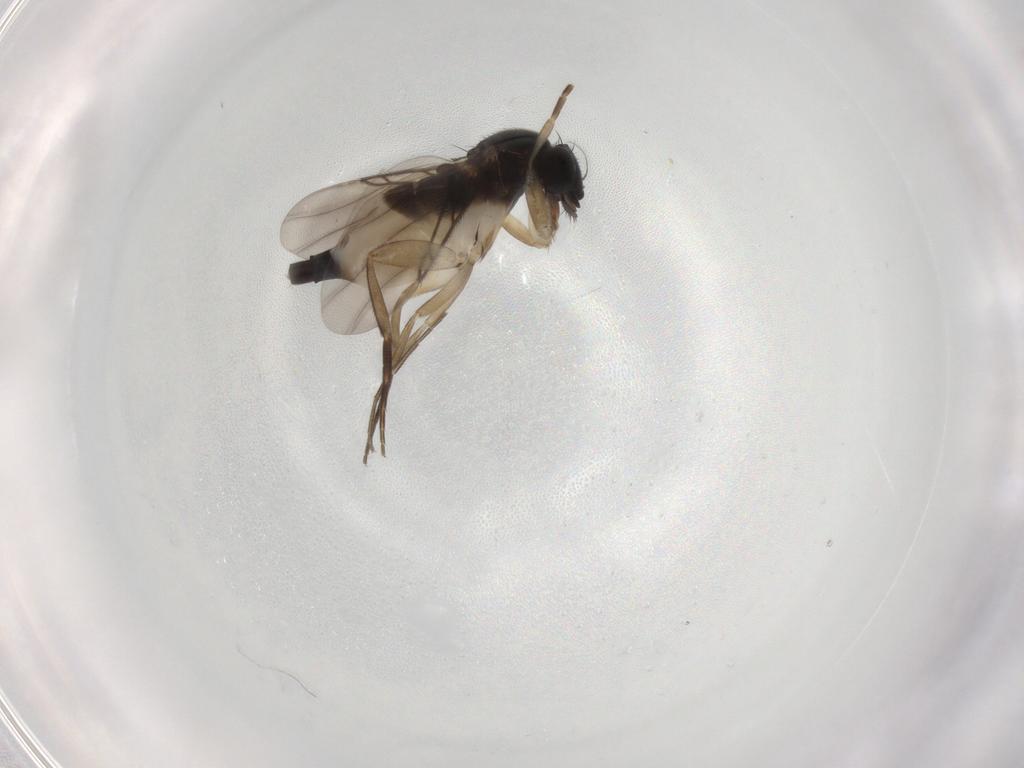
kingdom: Animalia
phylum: Arthropoda
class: Insecta
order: Diptera
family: Phoridae
